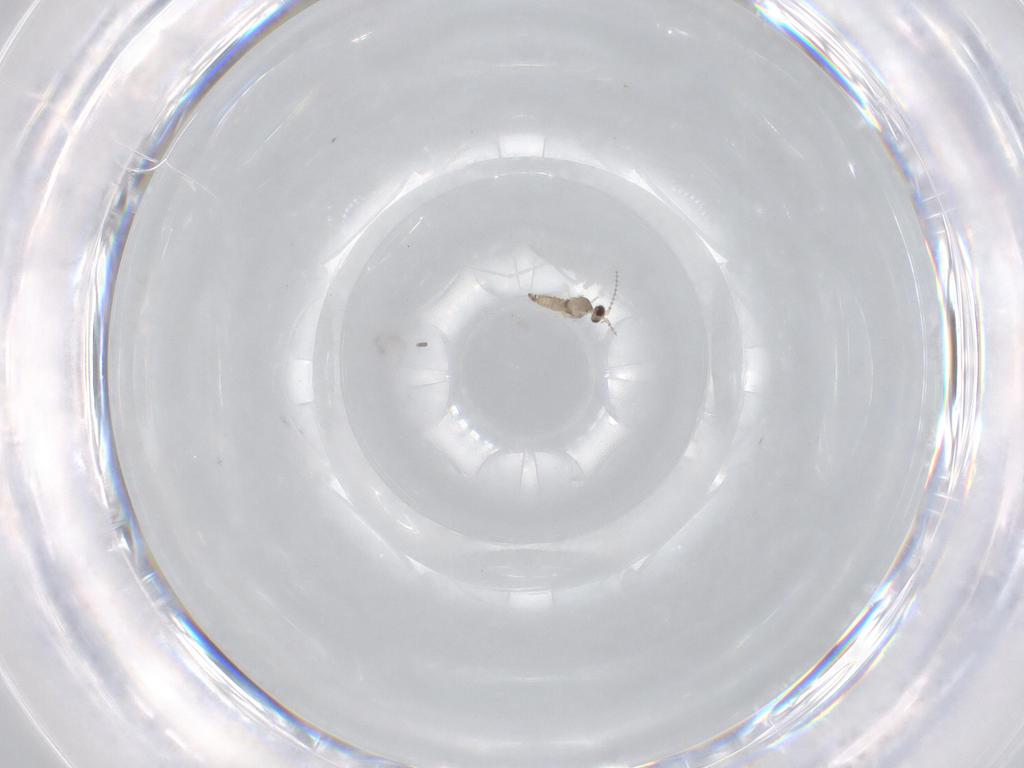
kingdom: Animalia
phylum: Arthropoda
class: Insecta
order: Diptera
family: Cecidomyiidae
